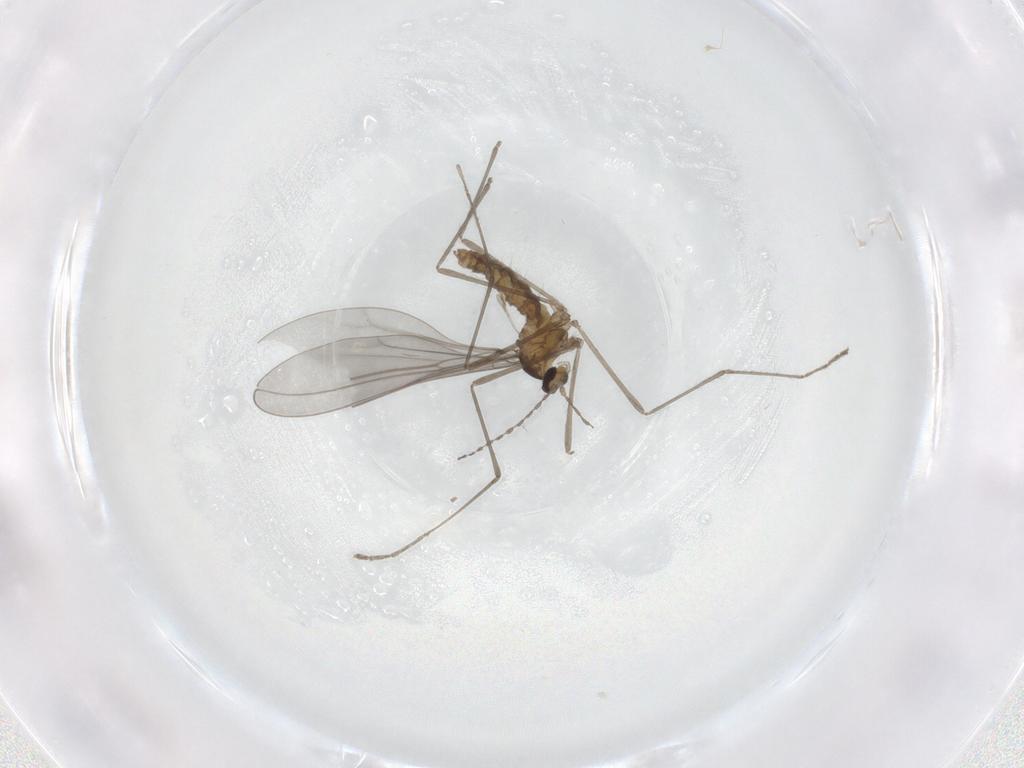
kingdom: Animalia
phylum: Arthropoda
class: Insecta
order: Diptera
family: Cecidomyiidae
